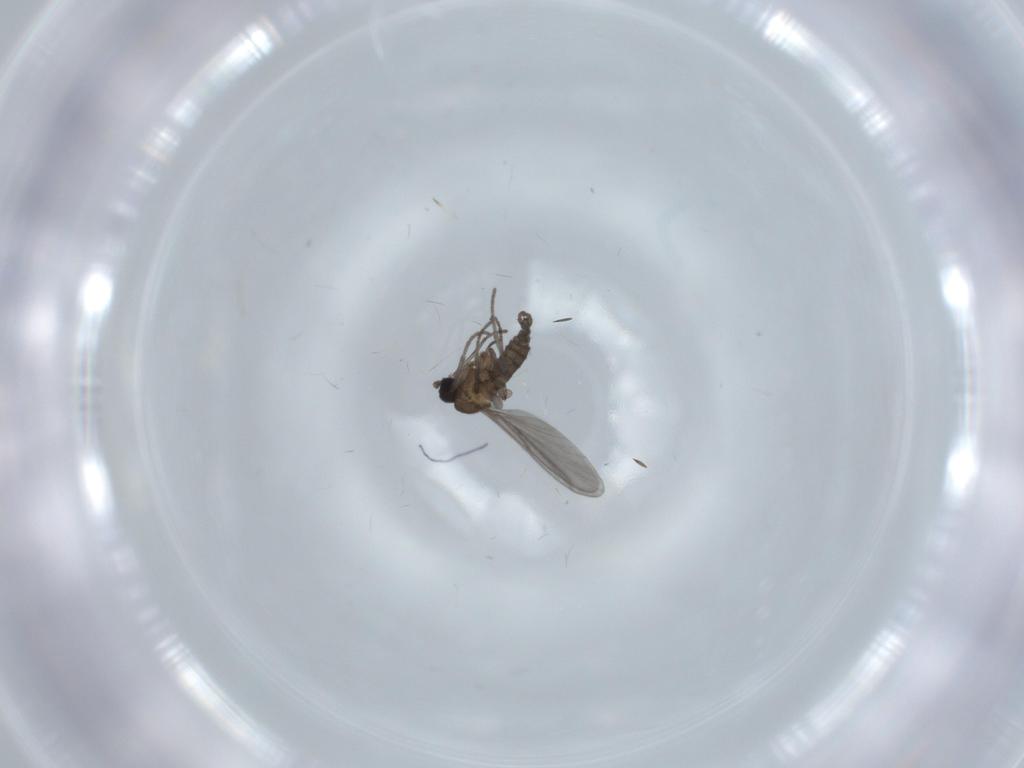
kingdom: Animalia
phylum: Arthropoda
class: Insecta
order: Diptera
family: Cecidomyiidae
